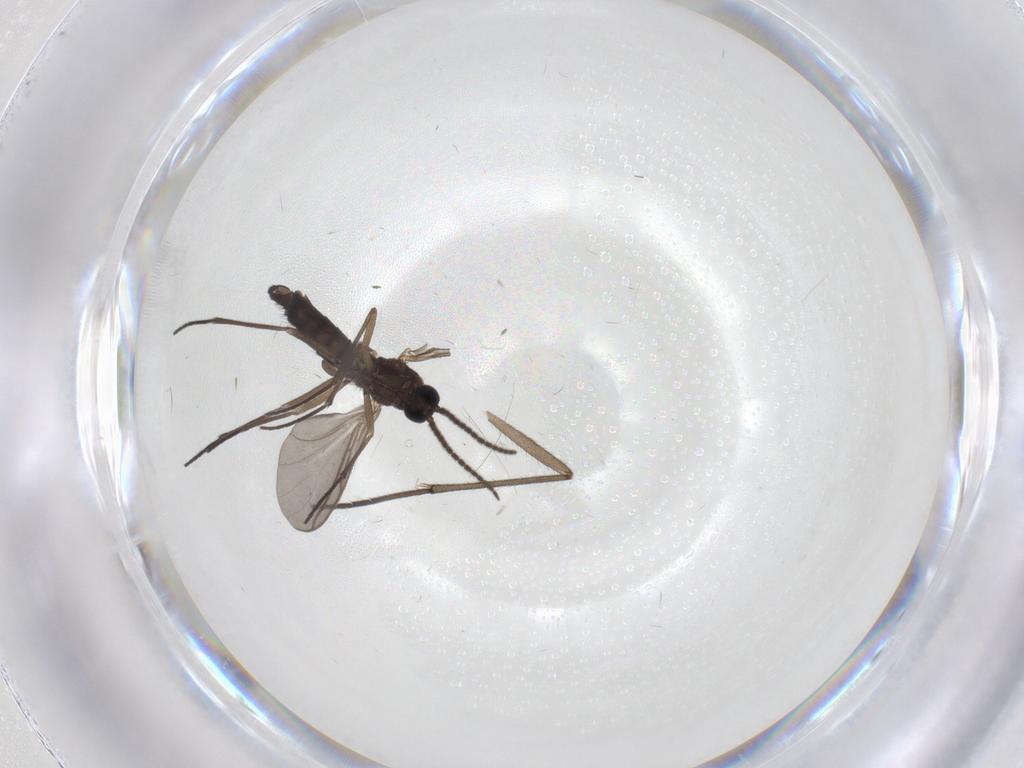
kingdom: Animalia
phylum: Arthropoda
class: Insecta
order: Diptera
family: Sciaridae
